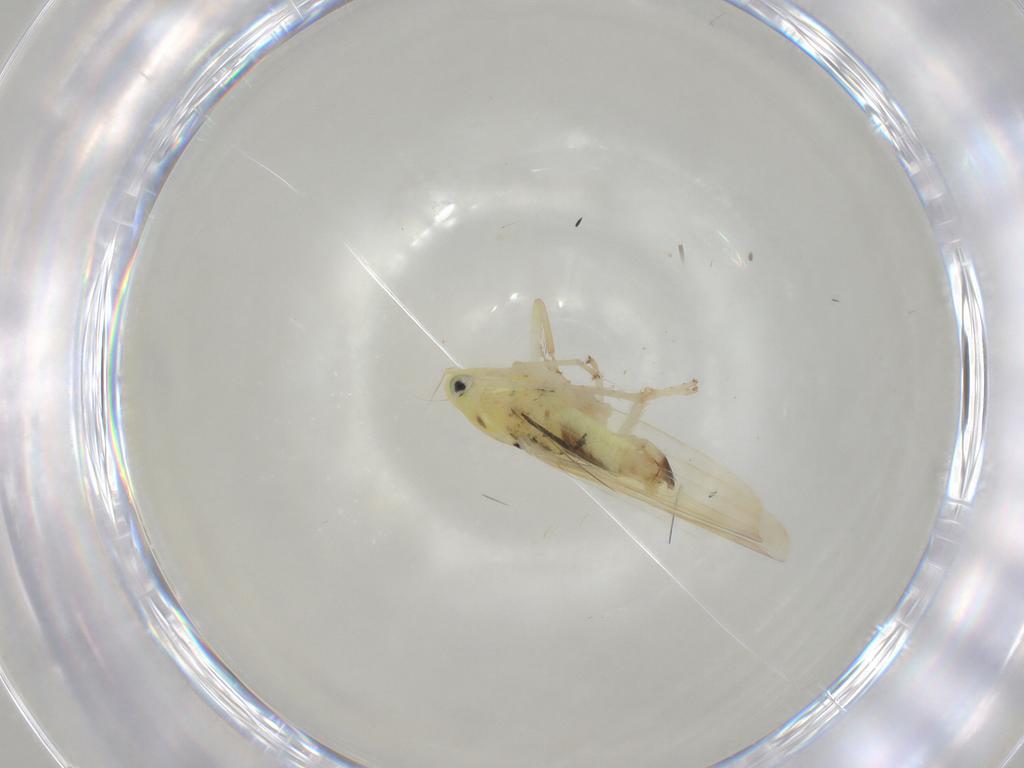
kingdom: Animalia
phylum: Arthropoda
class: Insecta
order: Hemiptera
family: Cicadellidae
